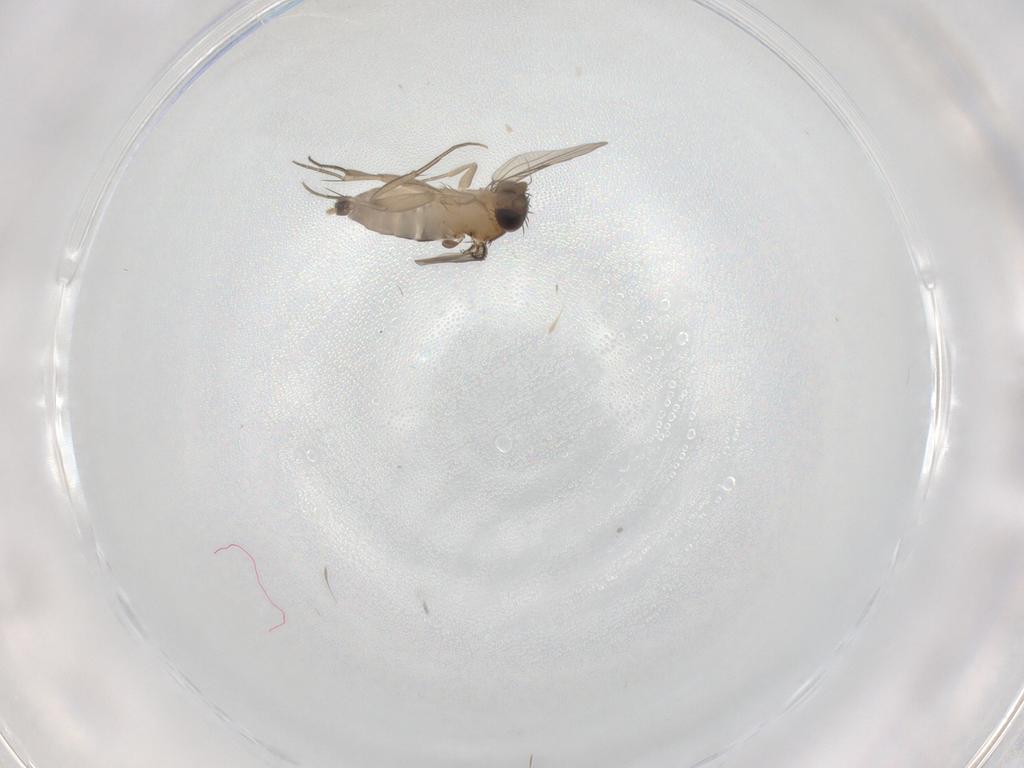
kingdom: Animalia
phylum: Arthropoda
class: Insecta
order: Diptera
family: Phoridae
